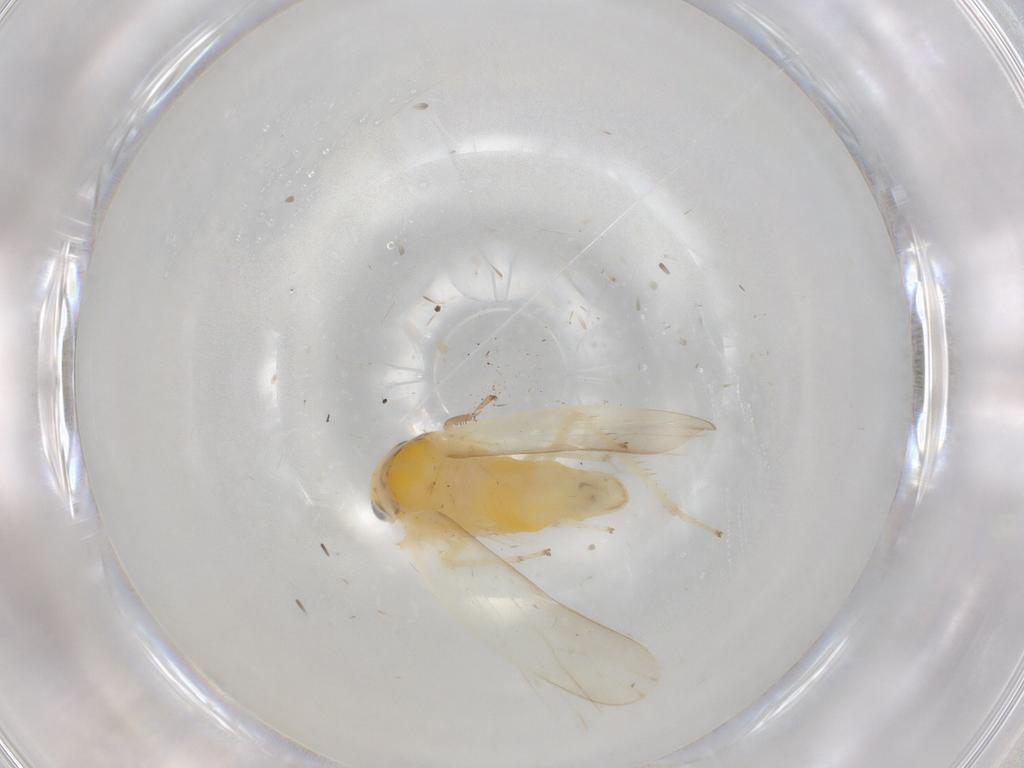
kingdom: Animalia
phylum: Arthropoda
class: Insecta
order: Hemiptera
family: Cicadellidae
